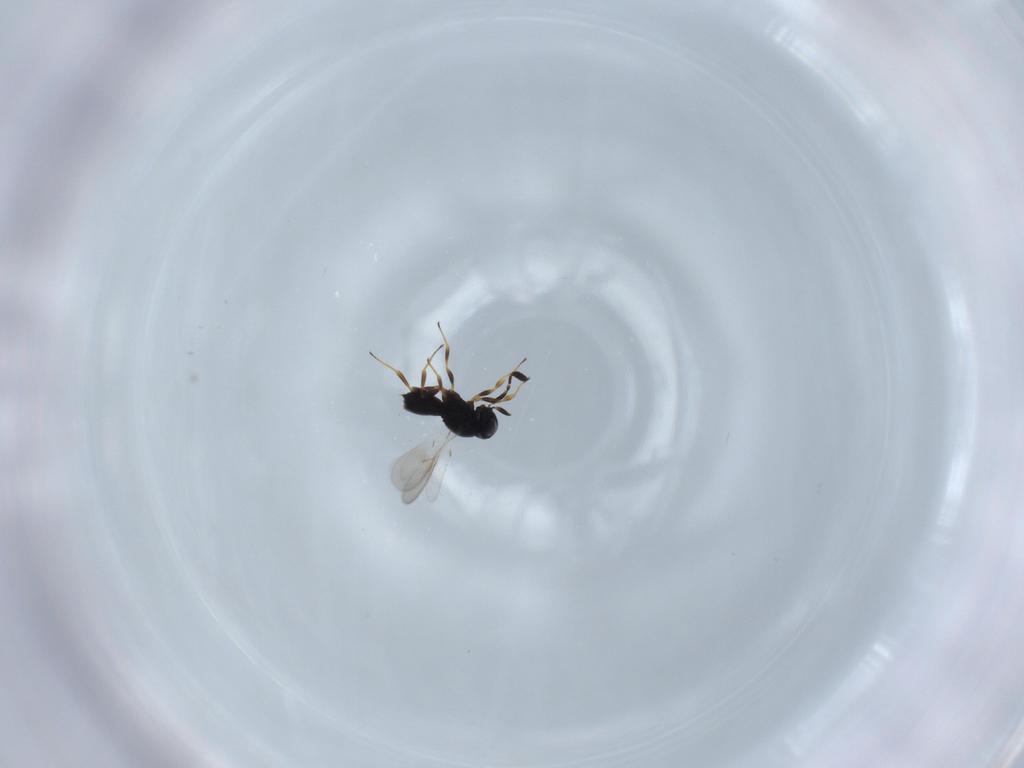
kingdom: Animalia
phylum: Arthropoda
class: Insecta
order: Hymenoptera
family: Scelionidae
